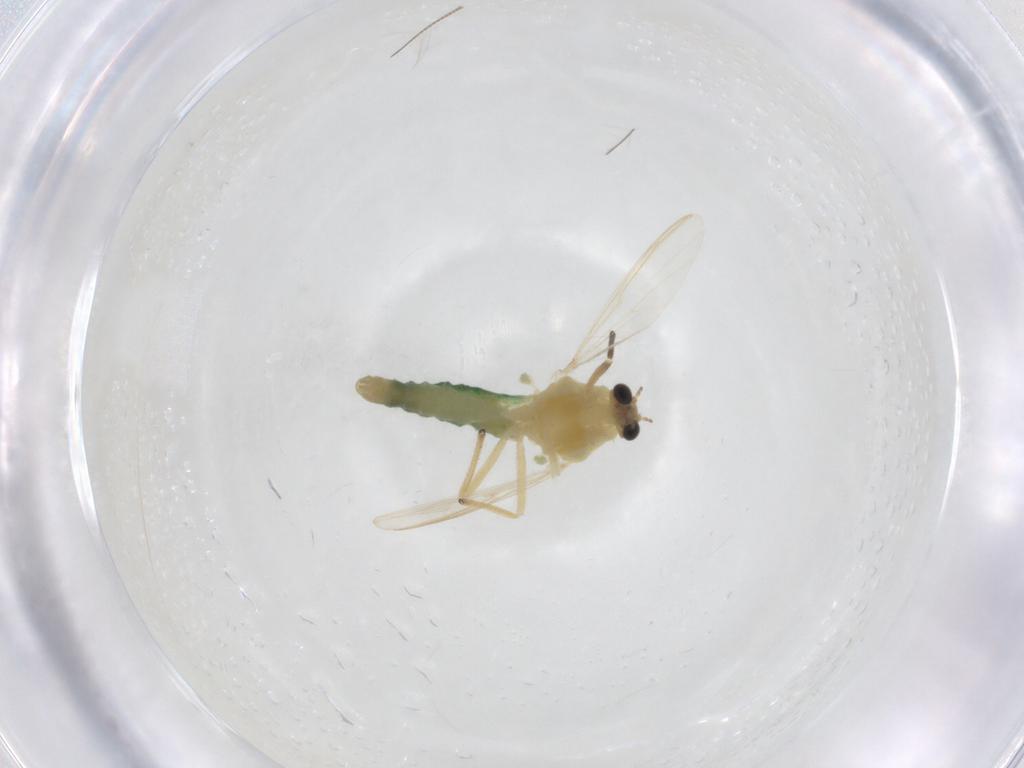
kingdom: Animalia
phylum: Arthropoda
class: Insecta
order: Diptera
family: Chironomidae
